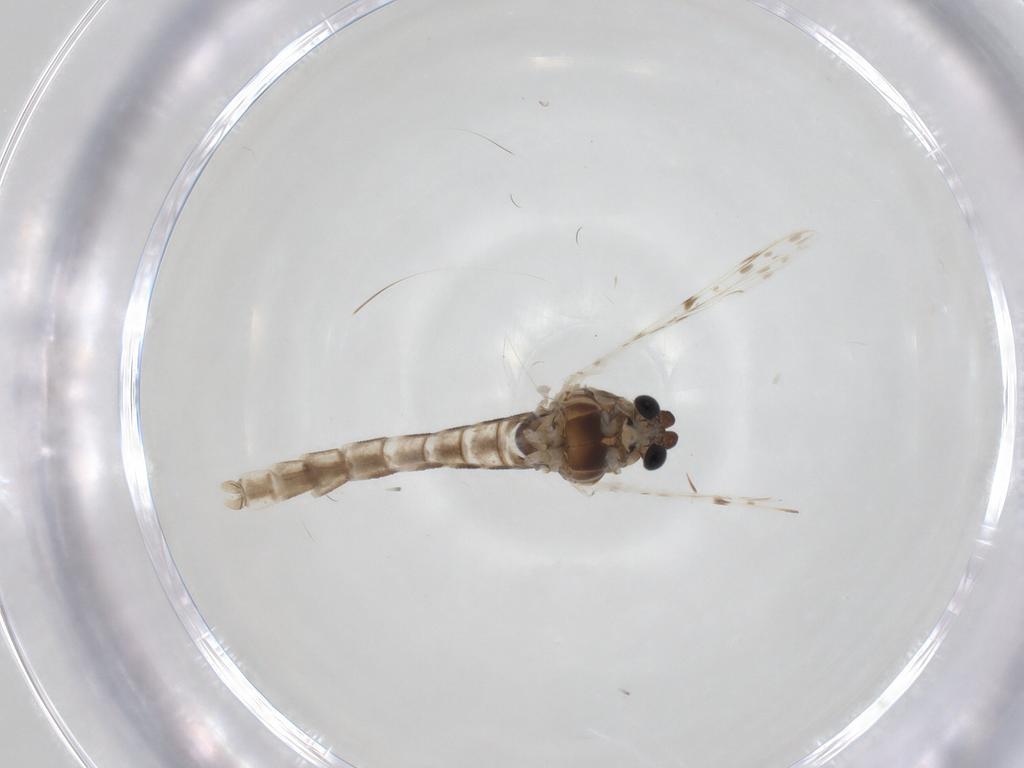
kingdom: Animalia
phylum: Arthropoda
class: Insecta
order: Diptera
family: Chironomidae
